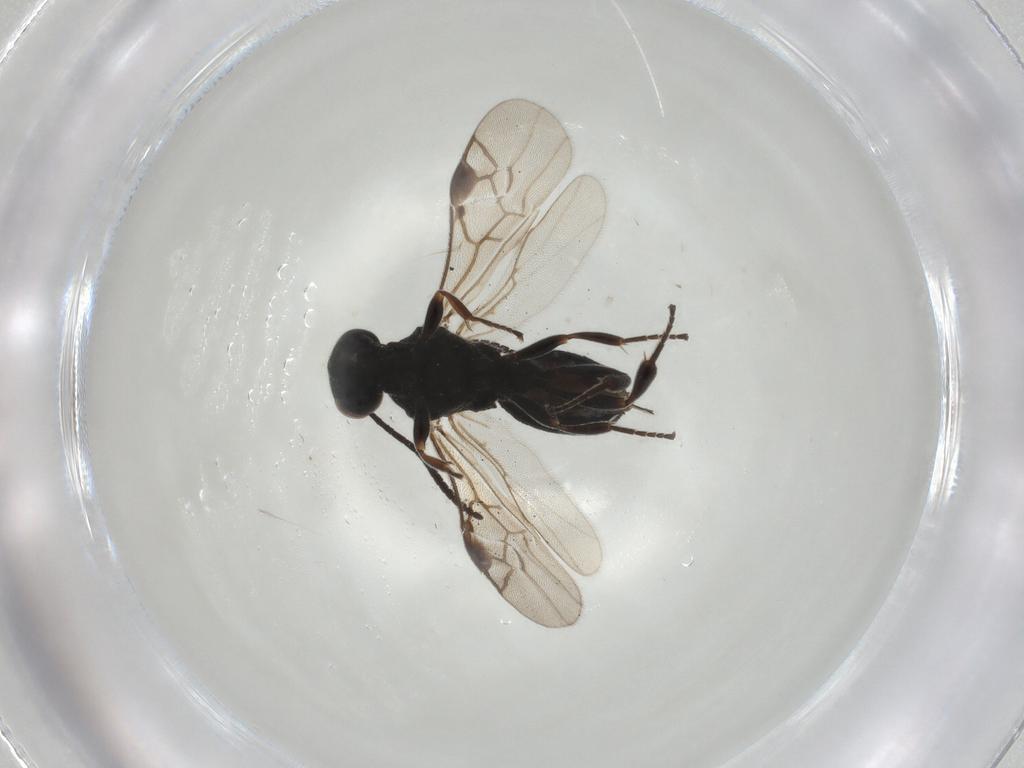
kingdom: Animalia
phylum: Arthropoda
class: Insecta
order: Hymenoptera
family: Braconidae
